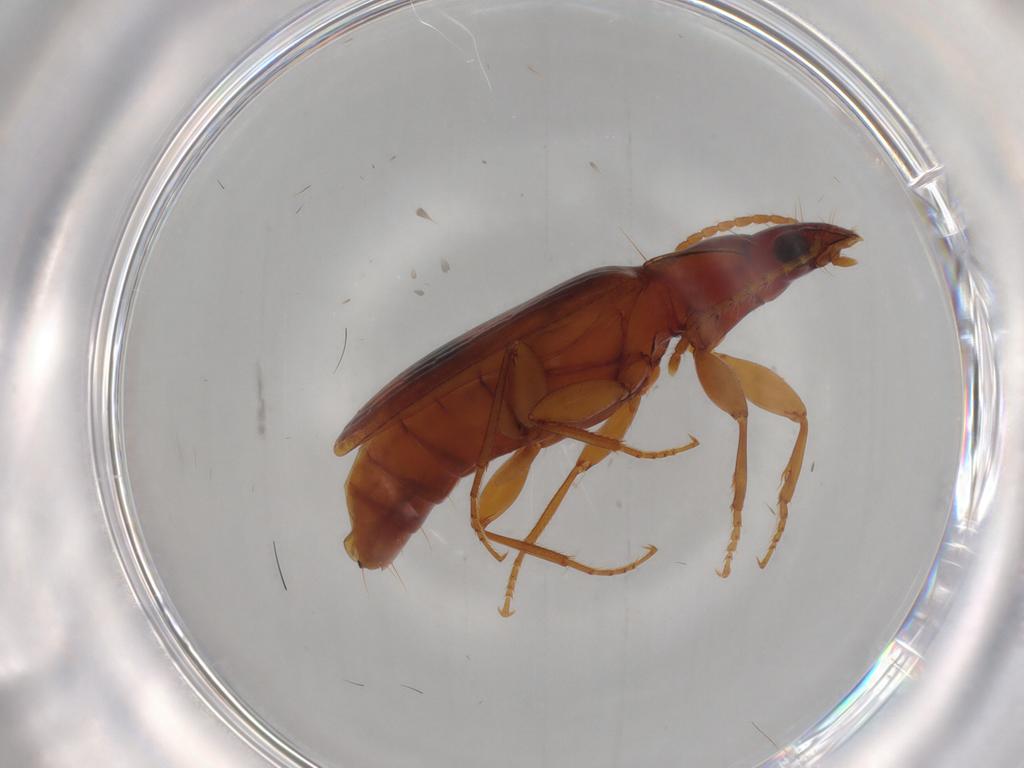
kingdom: Animalia
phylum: Arthropoda
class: Insecta
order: Coleoptera
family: Carabidae
